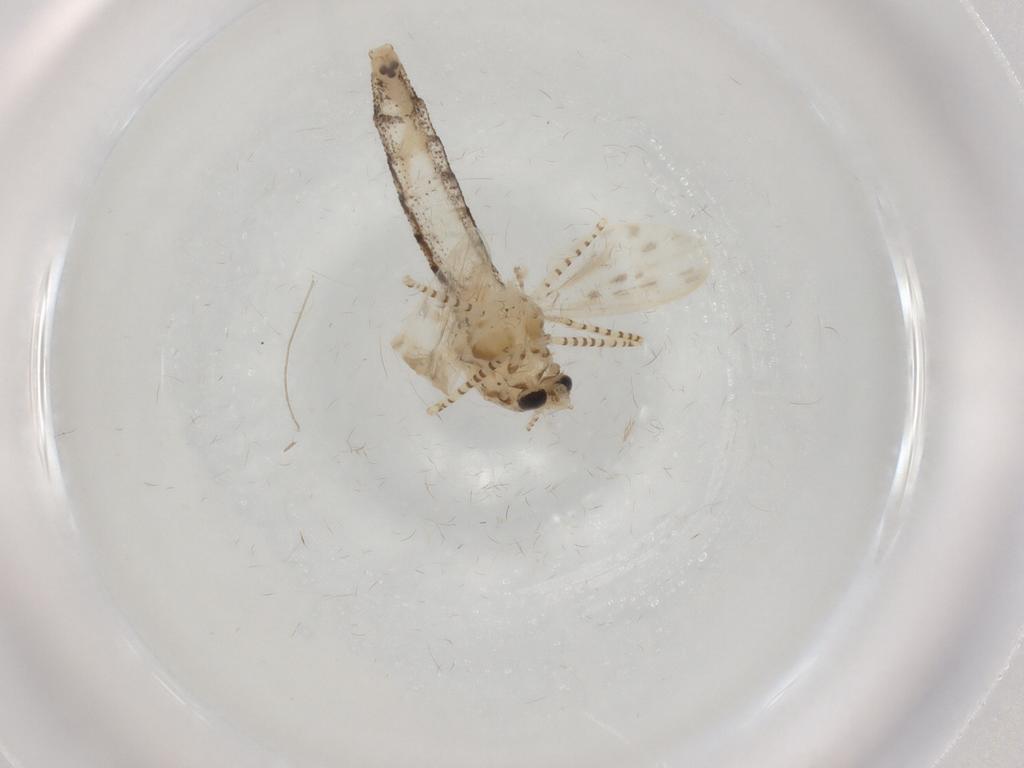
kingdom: Animalia
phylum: Arthropoda
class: Insecta
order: Diptera
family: Chaoboridae
